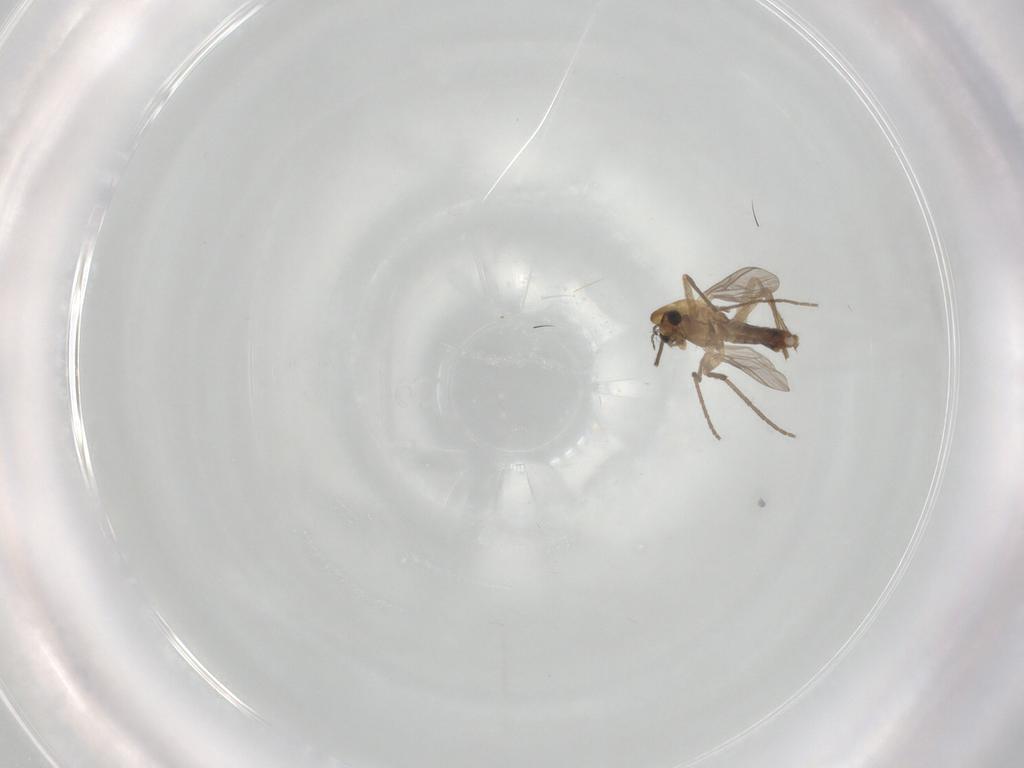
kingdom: Animalia
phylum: Arthropoda
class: Insecta
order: Diptera
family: Chironomidae
